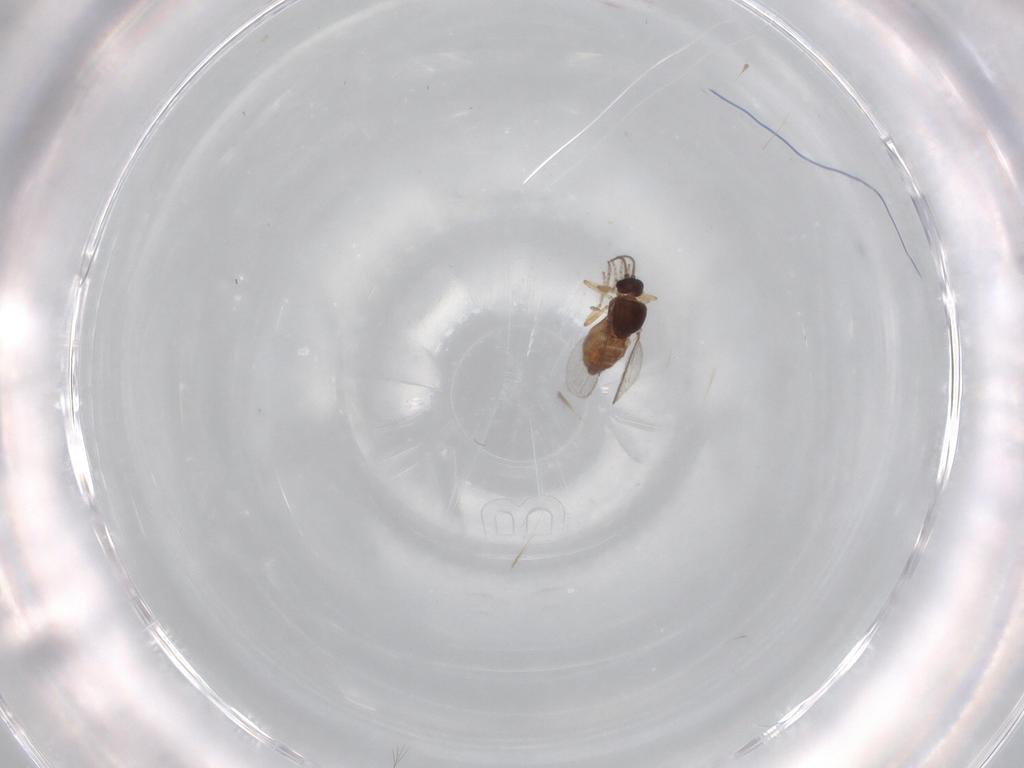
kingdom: Animalia
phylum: Arthropoda
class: Insecta
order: Diptera
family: Ceratopogonidae
